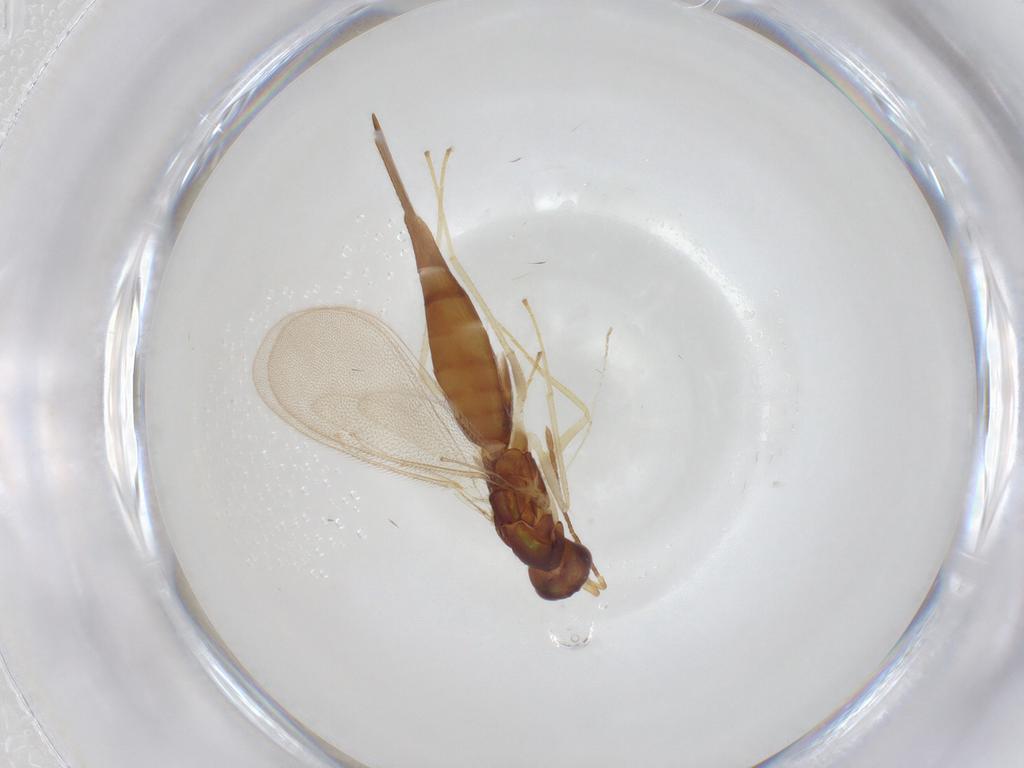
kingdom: Animalia
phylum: Arthropoda
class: Insecta
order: Hymenoptera
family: Eulophidae
